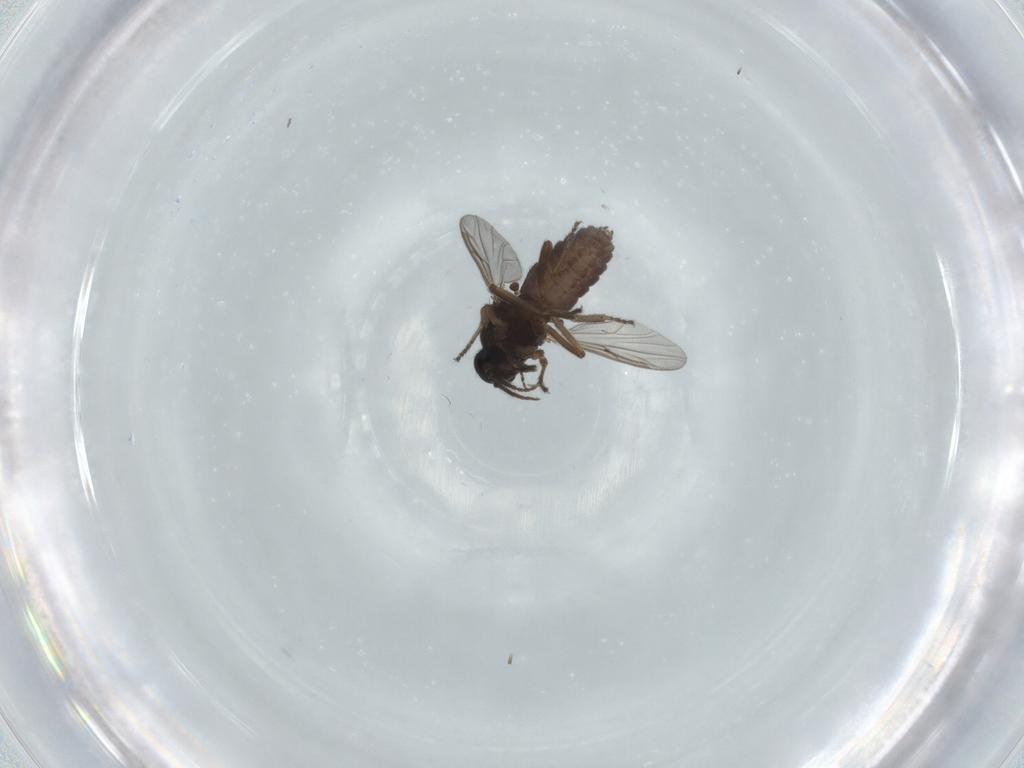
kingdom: Animalia
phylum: Arthropoda
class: Insecta
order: Diptera
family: Ceratopogonidae
